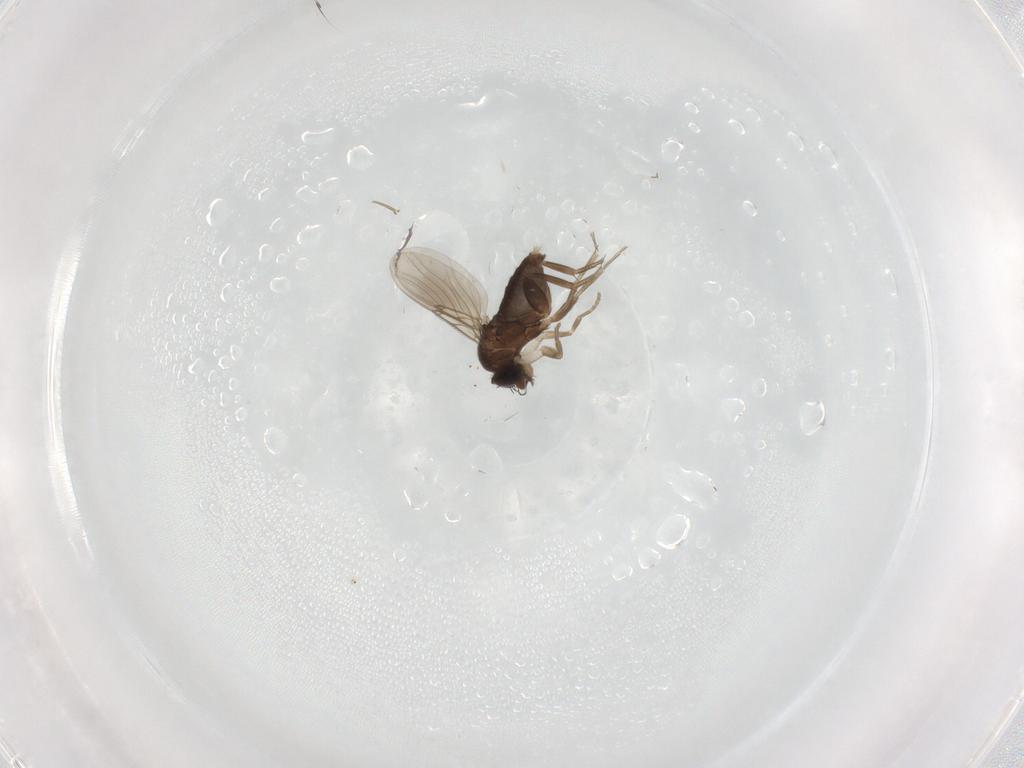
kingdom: Animalia
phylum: Arthropoda
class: Insecta
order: Diptera
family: Phoridae
